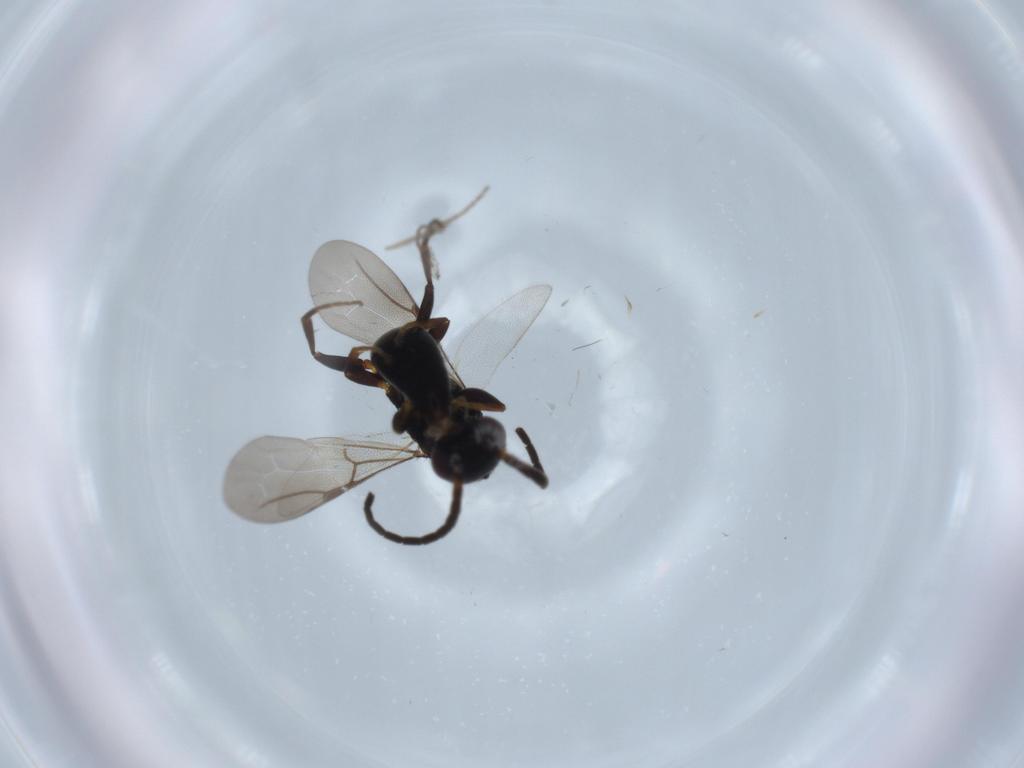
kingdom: Animalia
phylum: Arthropoda
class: Insecta
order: Hymenoptera
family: Bethylidae
